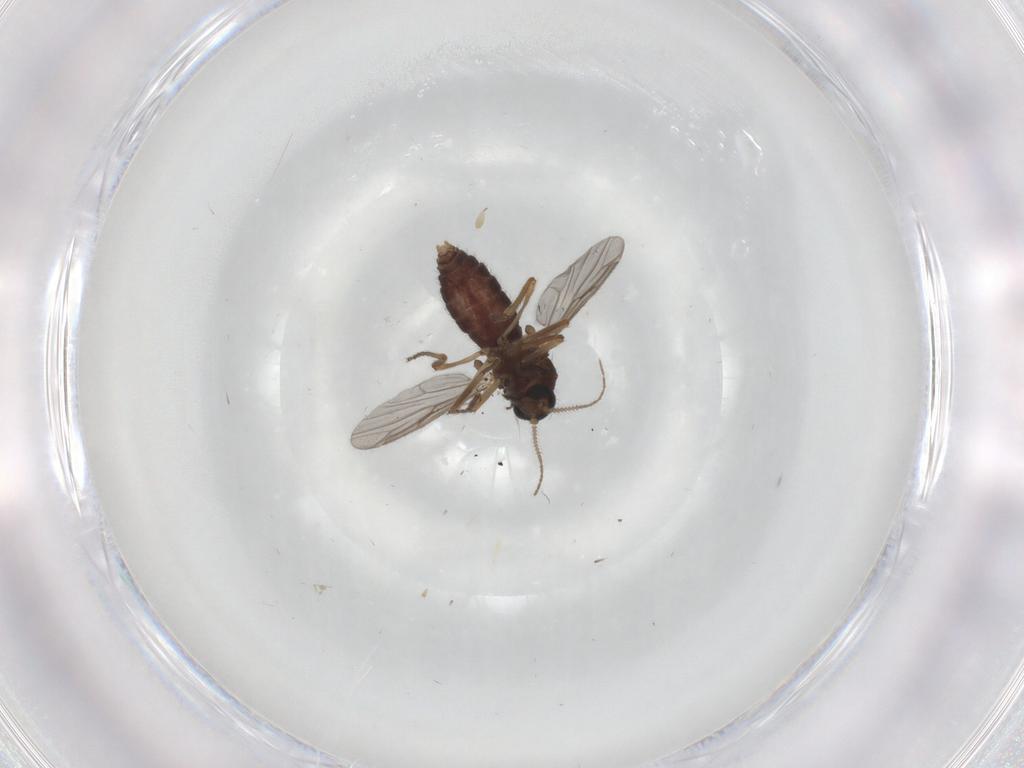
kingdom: Animalia
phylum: Arthropoda
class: Insecta
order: Diptera
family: Ceratopogonidae
